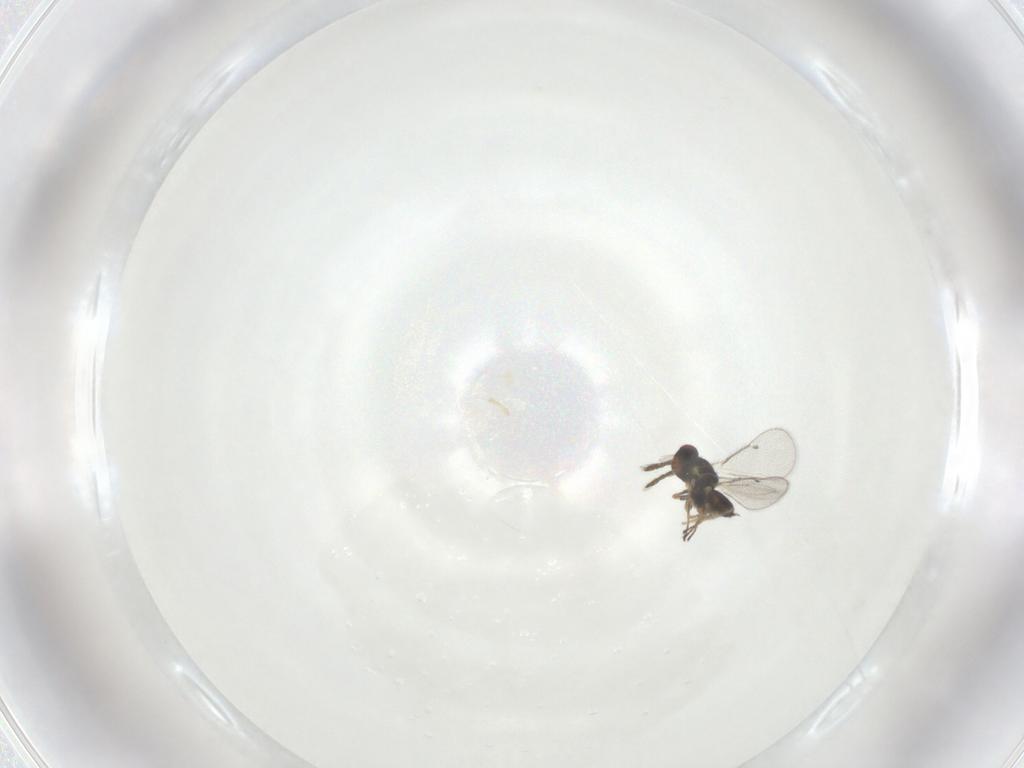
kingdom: Animalia
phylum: Arthropoda
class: Insecta
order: Hymenoptera
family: Eulophidae
